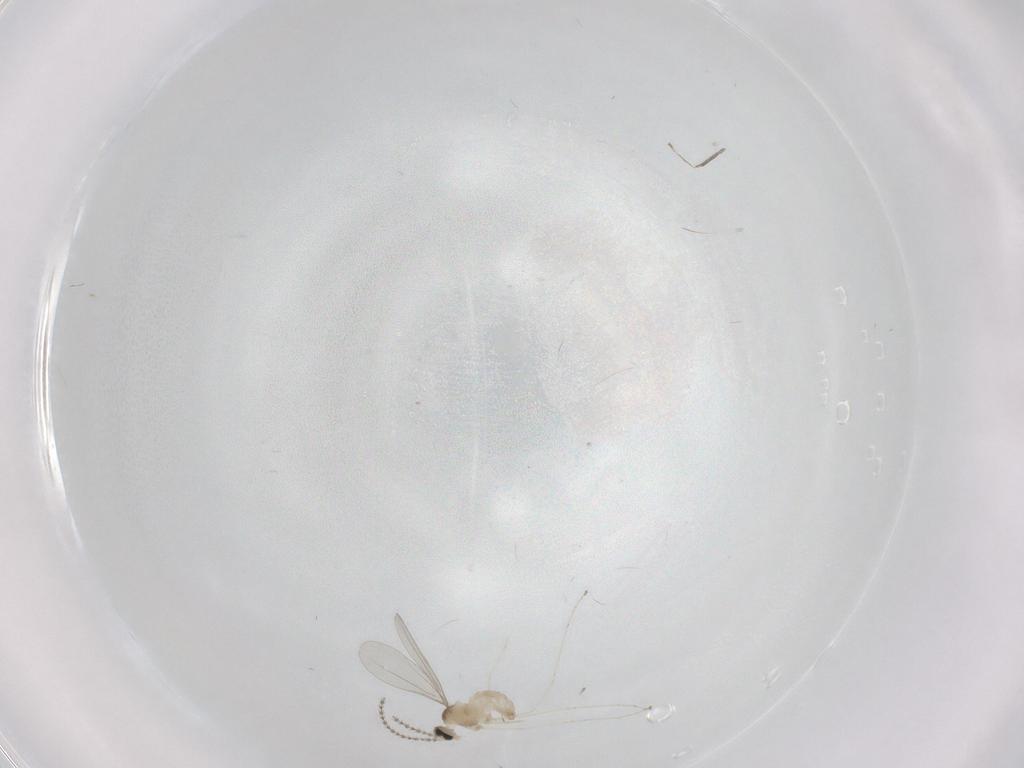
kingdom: Animalia
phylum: Arthropoda
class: Insecta
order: Diptera
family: Cecidomyiidae
